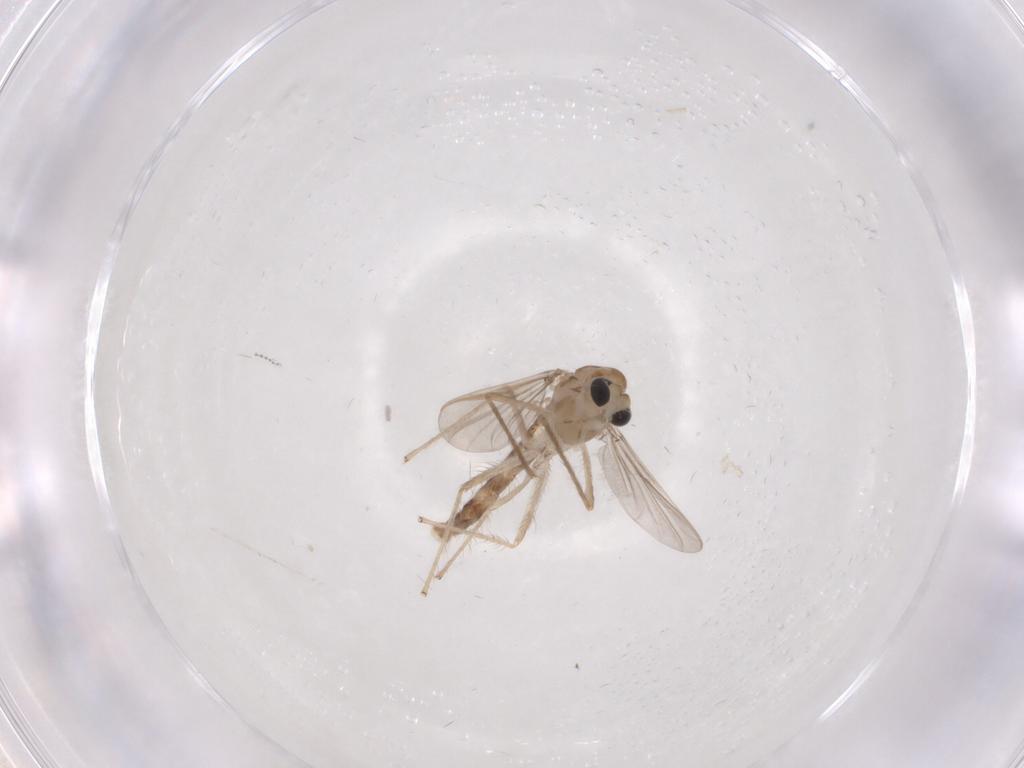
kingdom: Animalia
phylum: Arthropoda
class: Insecta
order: Diptera
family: Chironomidae
